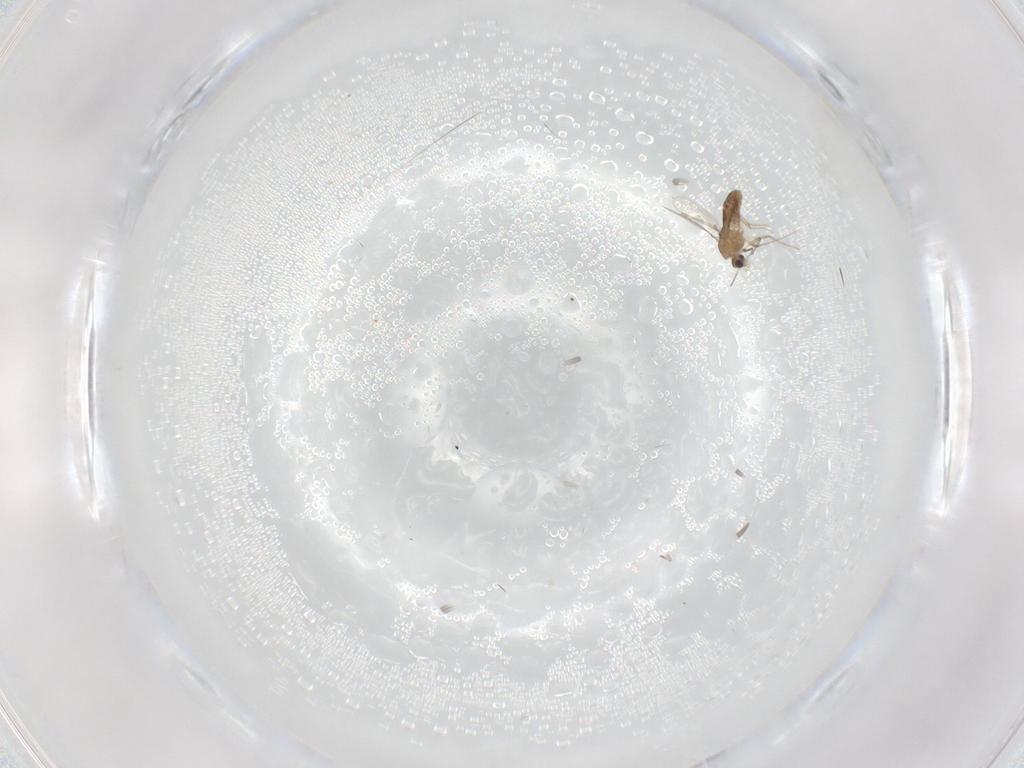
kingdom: Animalia
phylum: Arthropoda
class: Insecta
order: Diptera
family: Chironomidae
